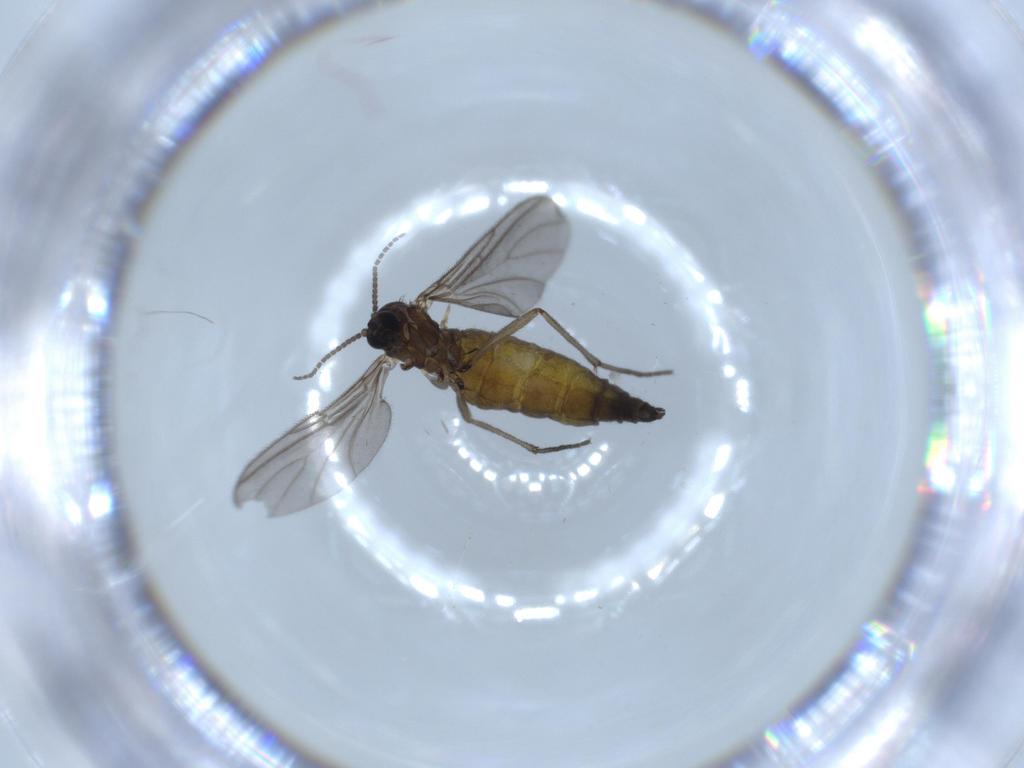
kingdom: Animalia
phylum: Arthropoda
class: Insecta
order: Diptera
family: Sciaridae
